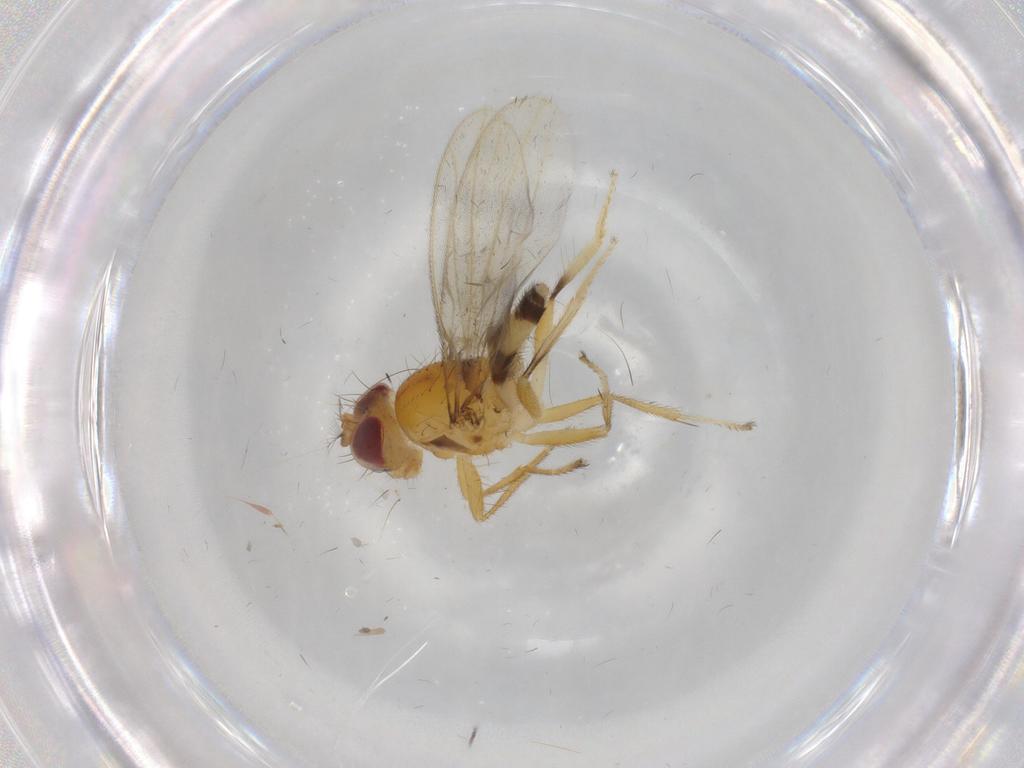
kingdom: Animalia
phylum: Arthropoda
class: Insecta
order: Diptera
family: Periscelididae
